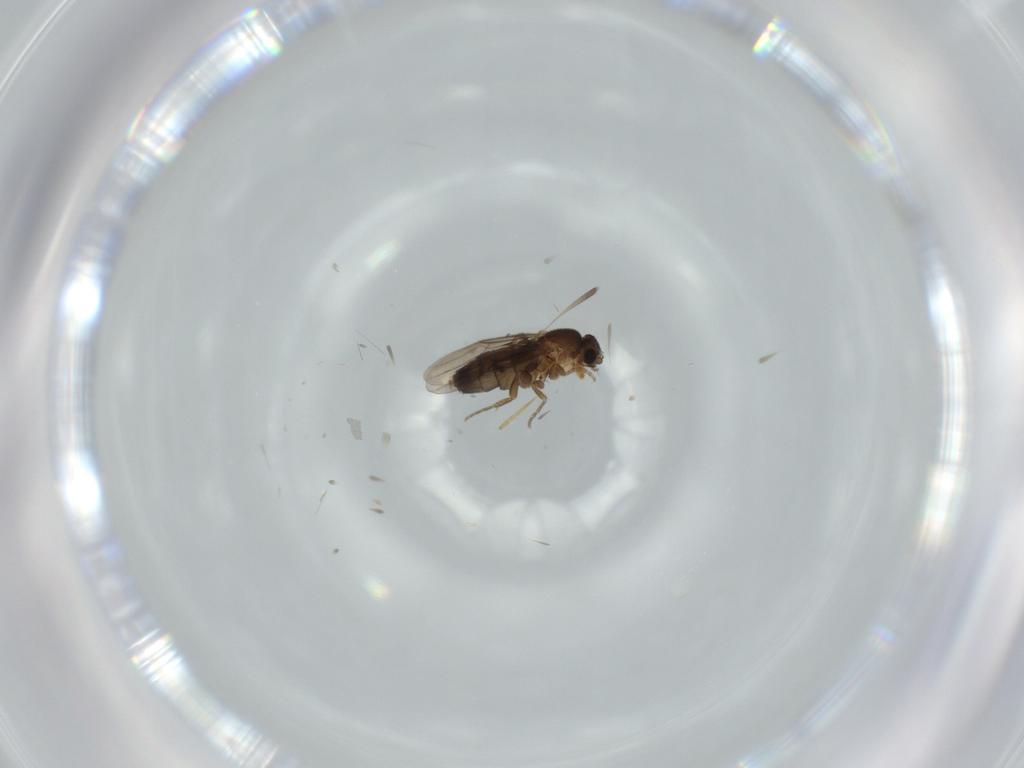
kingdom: Animalia
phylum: Arthropoda
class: Insecta
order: Diptera
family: Phoridae
